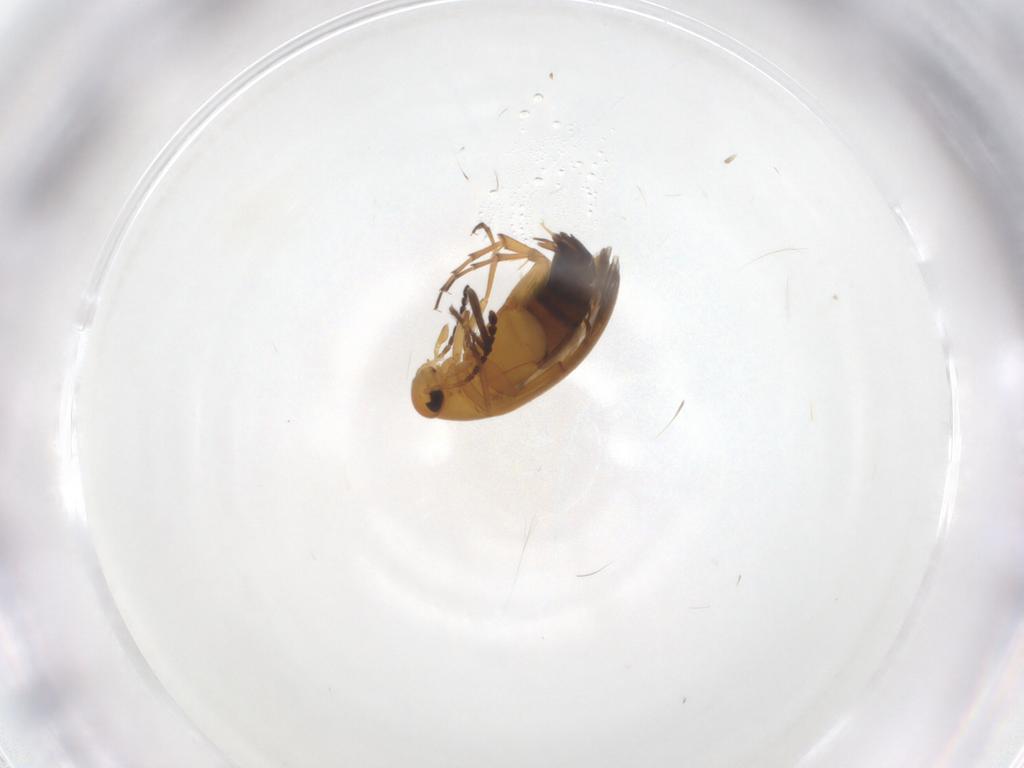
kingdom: Animalia
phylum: Arthropoda
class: Insecta
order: Coleoptera
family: Scraptiidae
